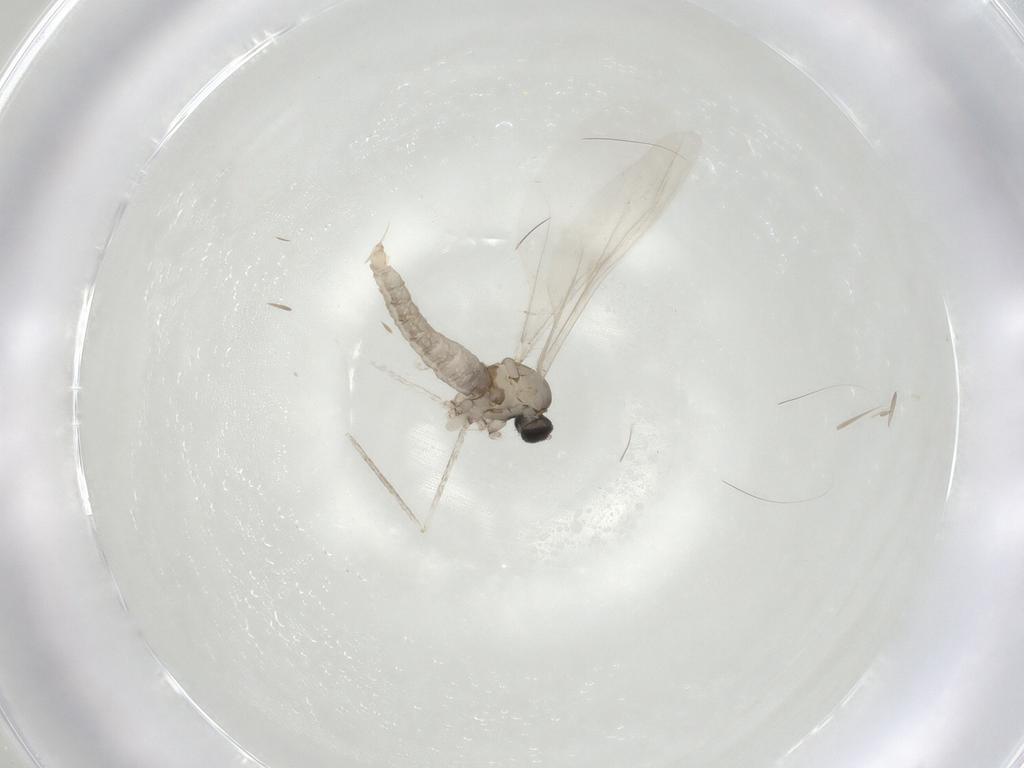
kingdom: Animalia
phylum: Arthropoda
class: Insecta
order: Diptera
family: Cecidomyiidae
